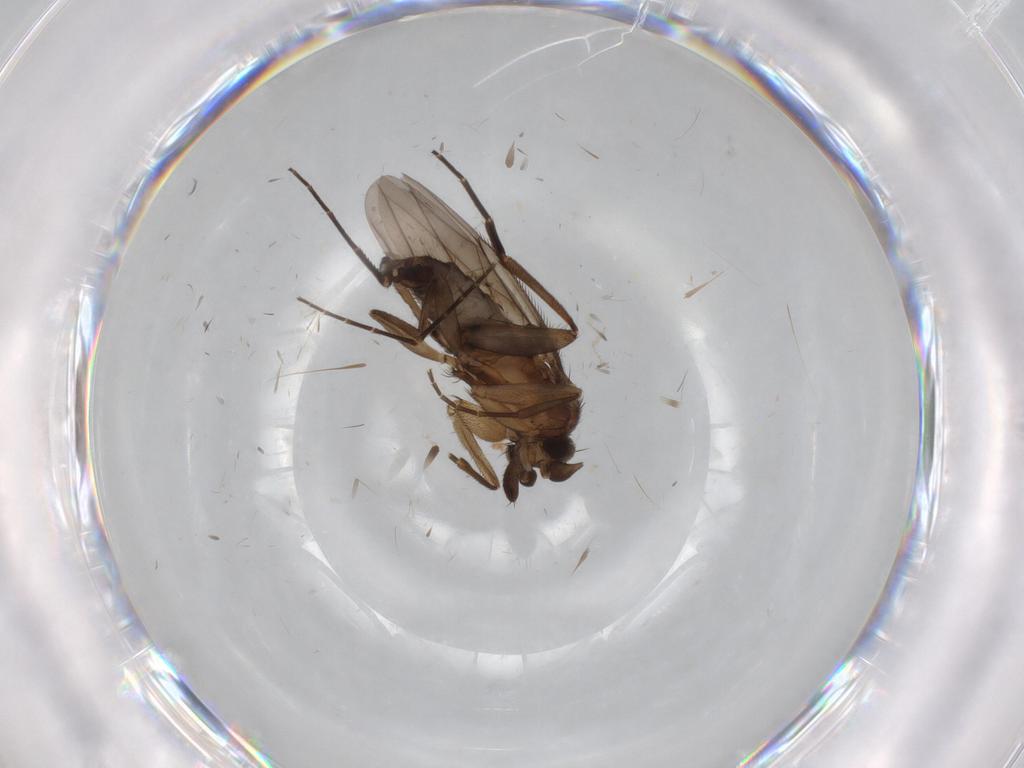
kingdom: Animalia
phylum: Arthropoda
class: Insecta
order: Diptera
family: Phoridae
